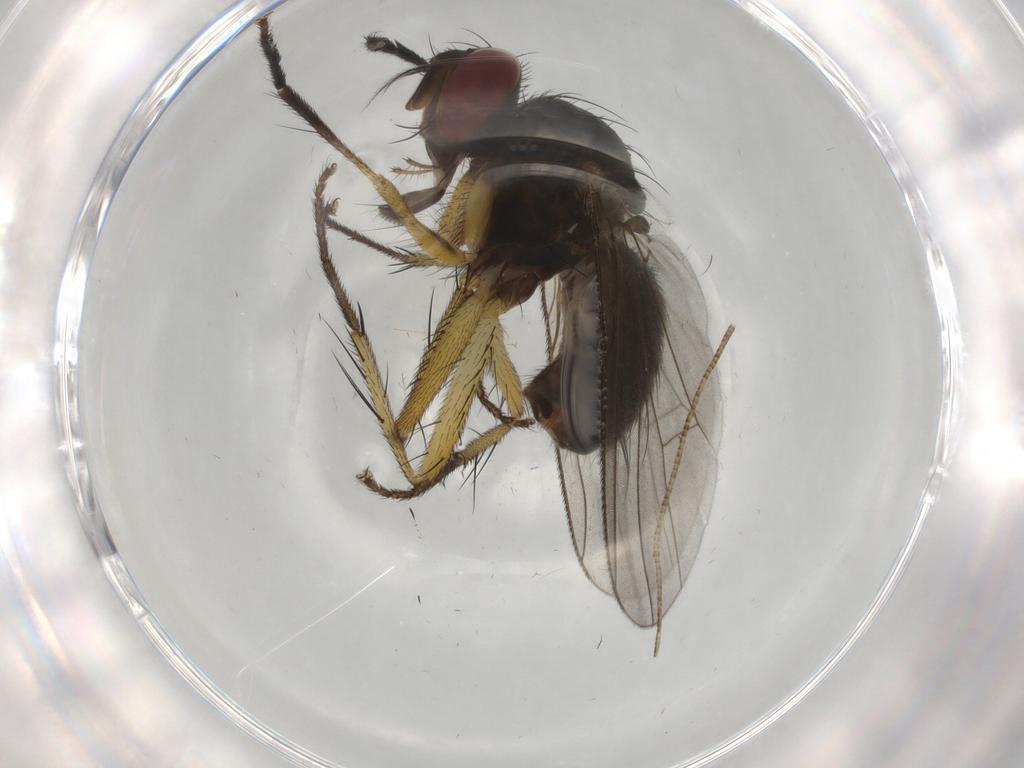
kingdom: Animalia
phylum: Arthropoda
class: Insecta
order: Diptera
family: Muscidae
